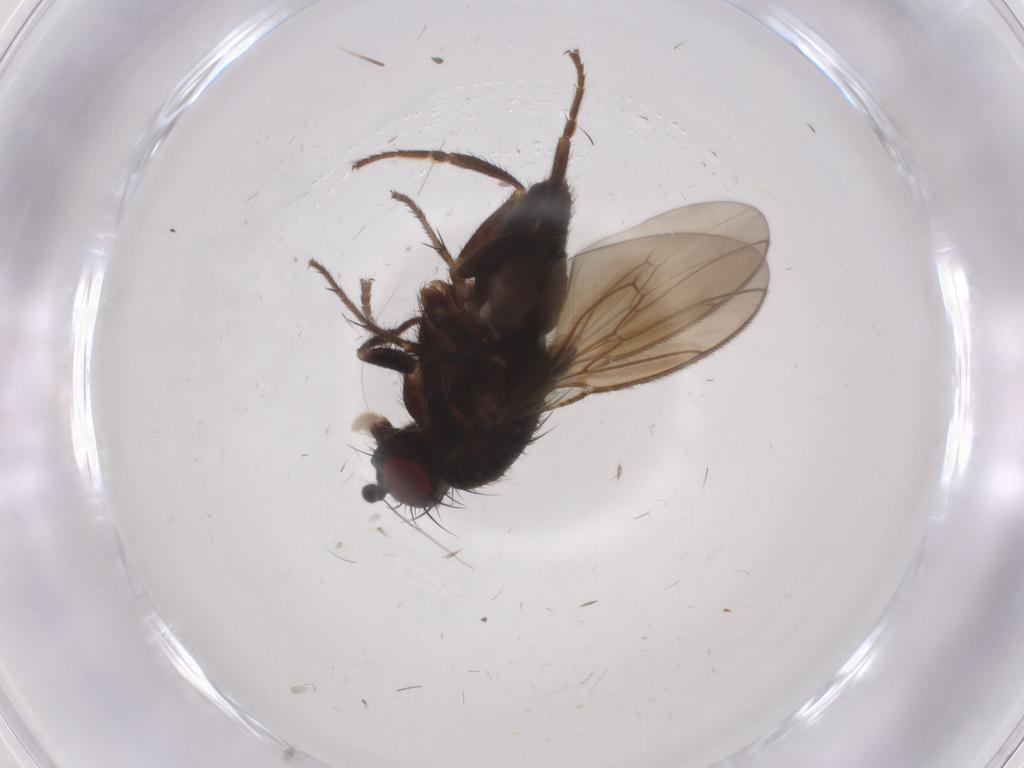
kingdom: Animalia
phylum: Arthropoda
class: Insecta
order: Diptera
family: Sphaeroceridae
